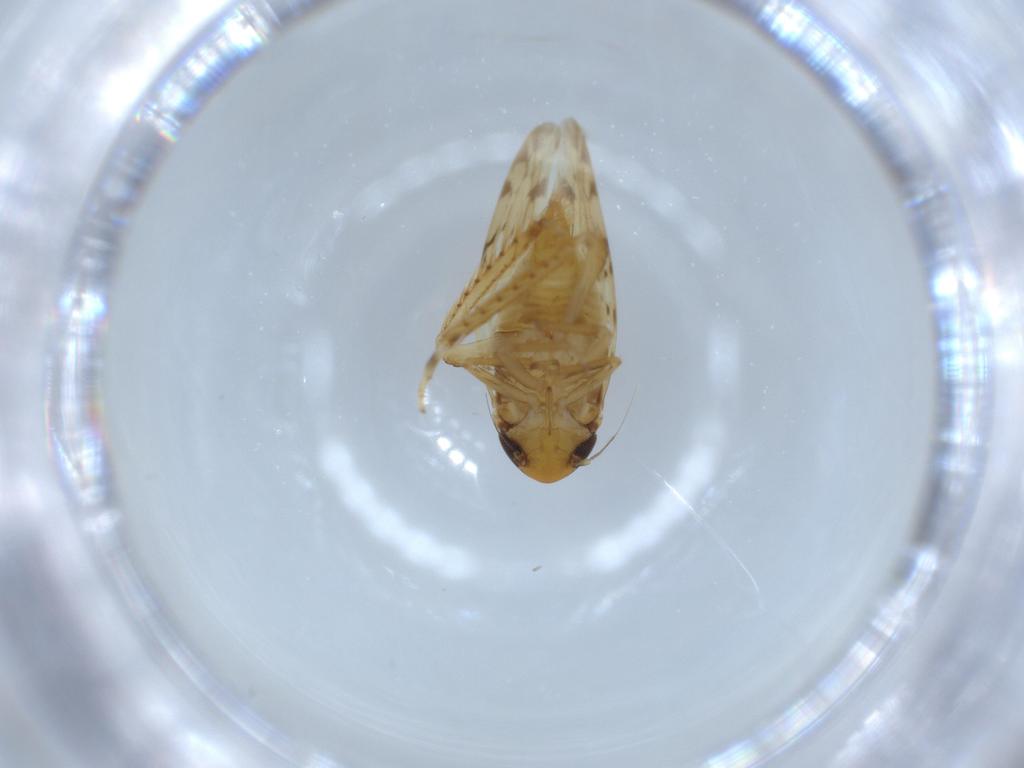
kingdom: Animalia
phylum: Arthropoda
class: Insecta
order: Hemiptera
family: Cicadellidae
